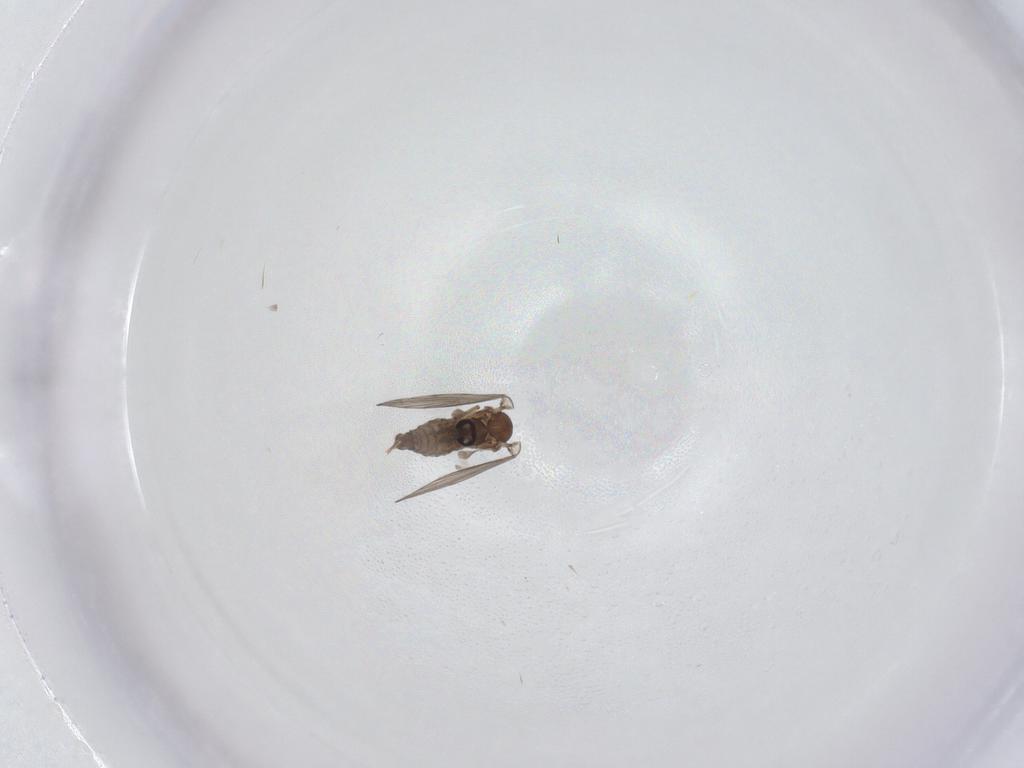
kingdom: Animalia
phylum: Arthropoda
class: Insecta
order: Diptera
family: Psychodidae
